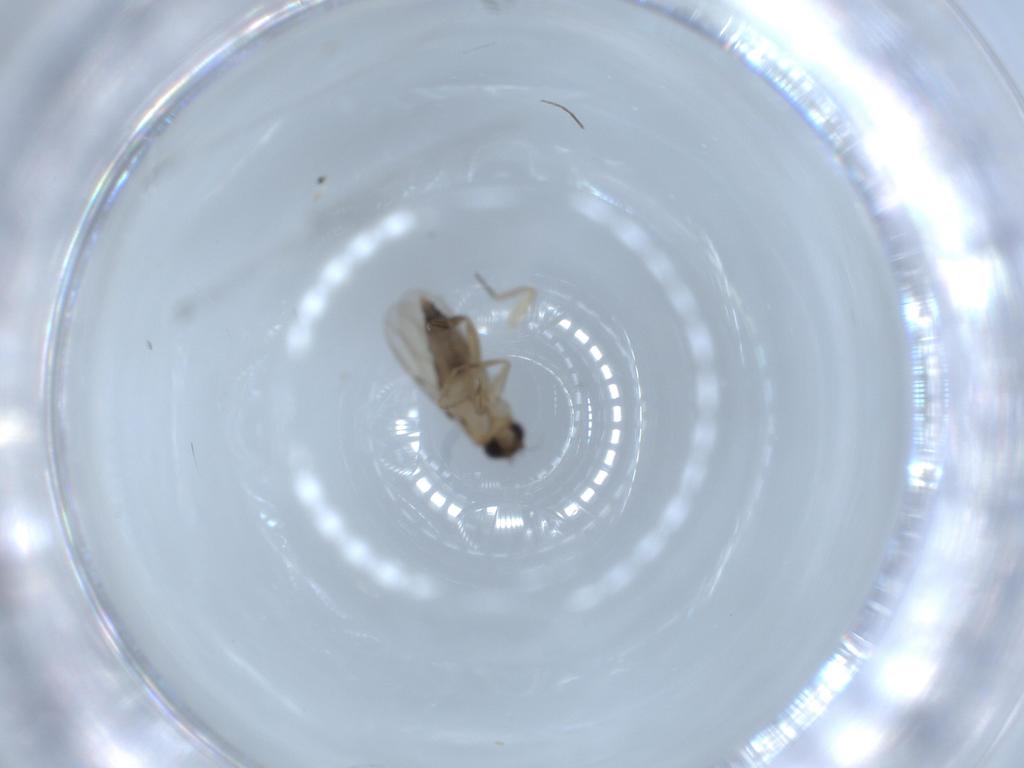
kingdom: Animalia
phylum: Arthropoda
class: Insecta
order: Diptera
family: Phoridae
